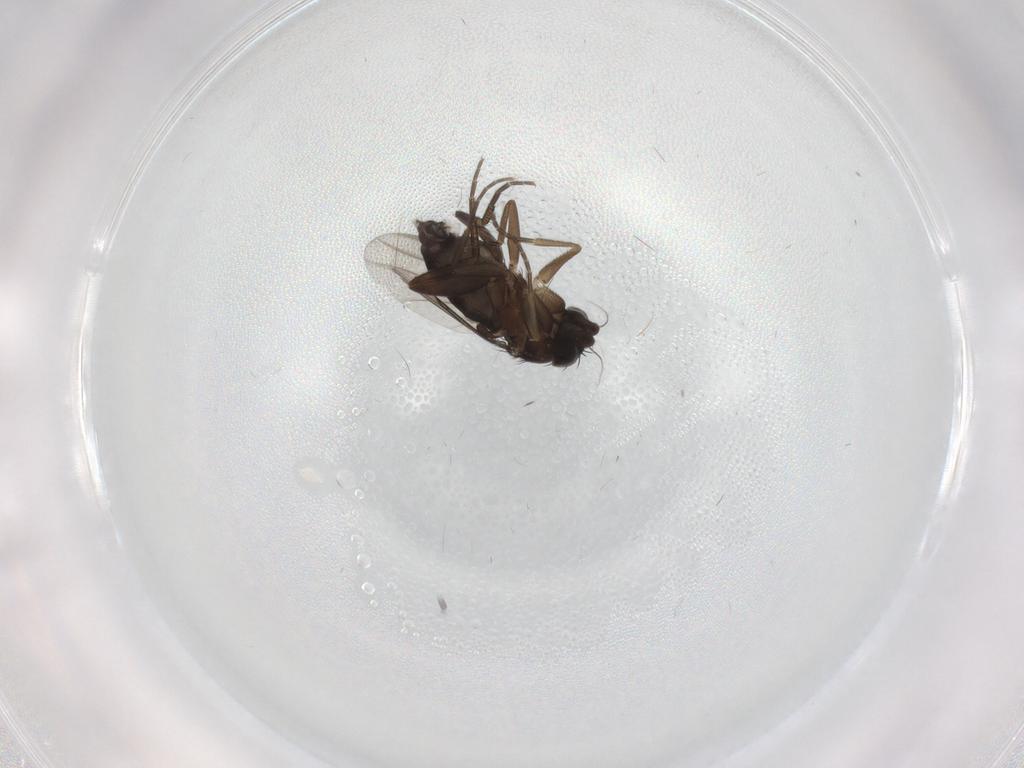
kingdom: Animalia
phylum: Arthropoda
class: Insecta
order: Diptera
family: Phoridae
